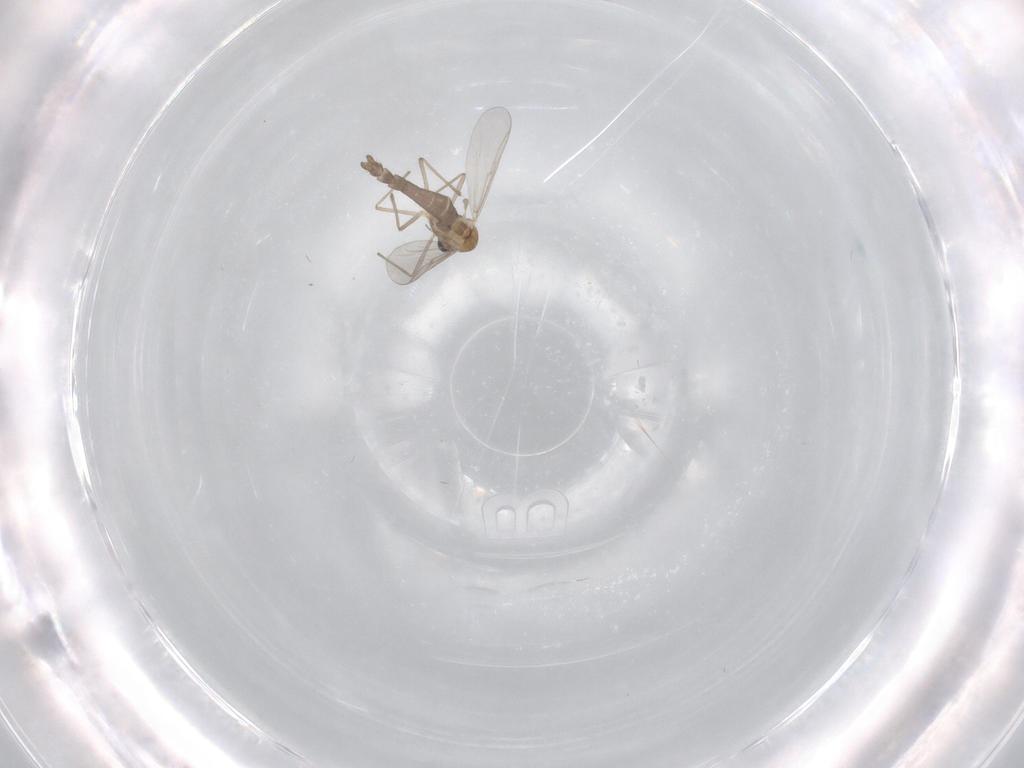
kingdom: Animalia
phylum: Arthropoda
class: Insecta
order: Diptera
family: Chironomidae
